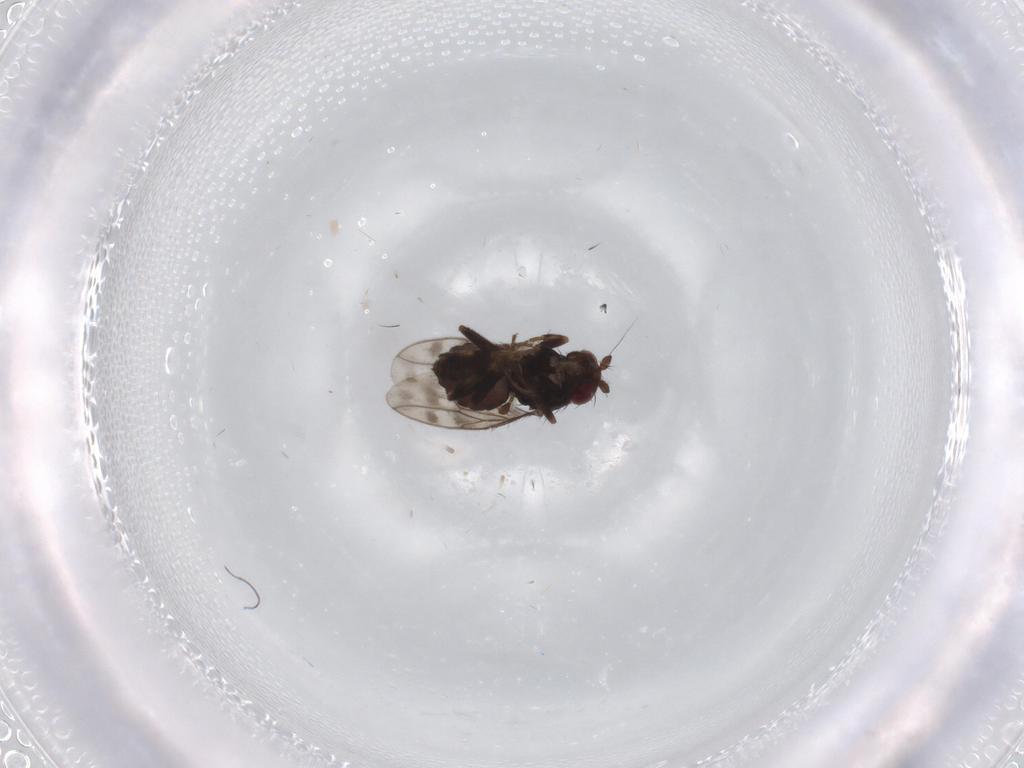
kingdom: Animalia
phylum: Arthropoda
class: Insecta
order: Diptera
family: Sphaeroceridae
